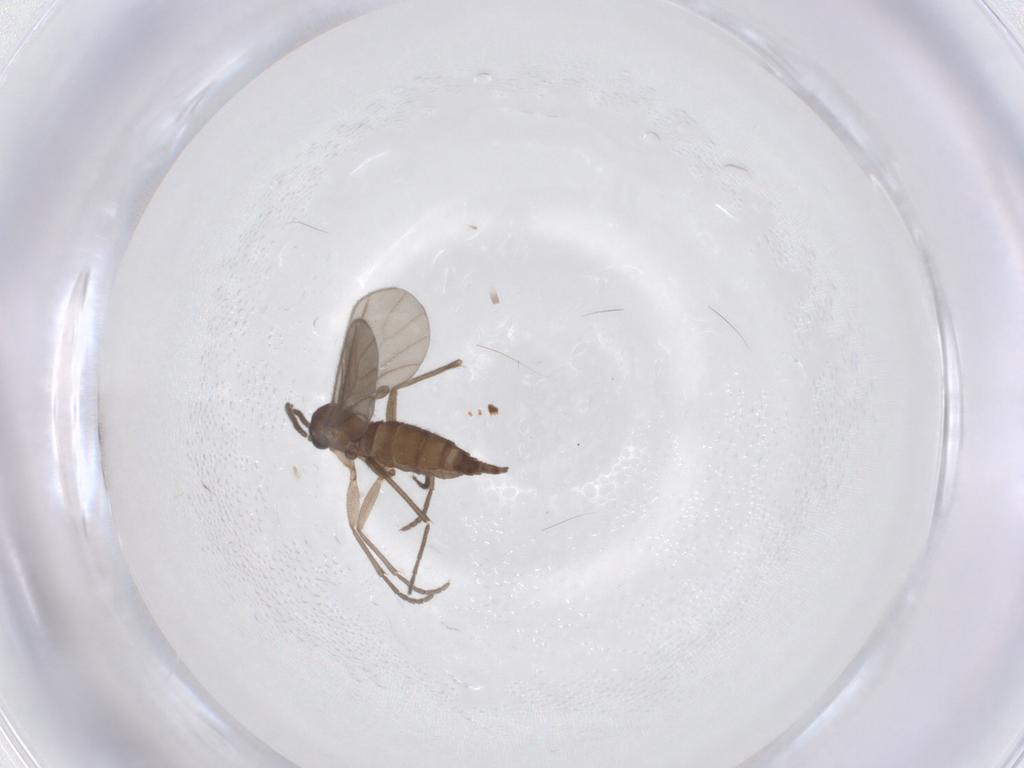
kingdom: Animalia
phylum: Arthropoda
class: Insecta
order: Diptera
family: Sciaridae
